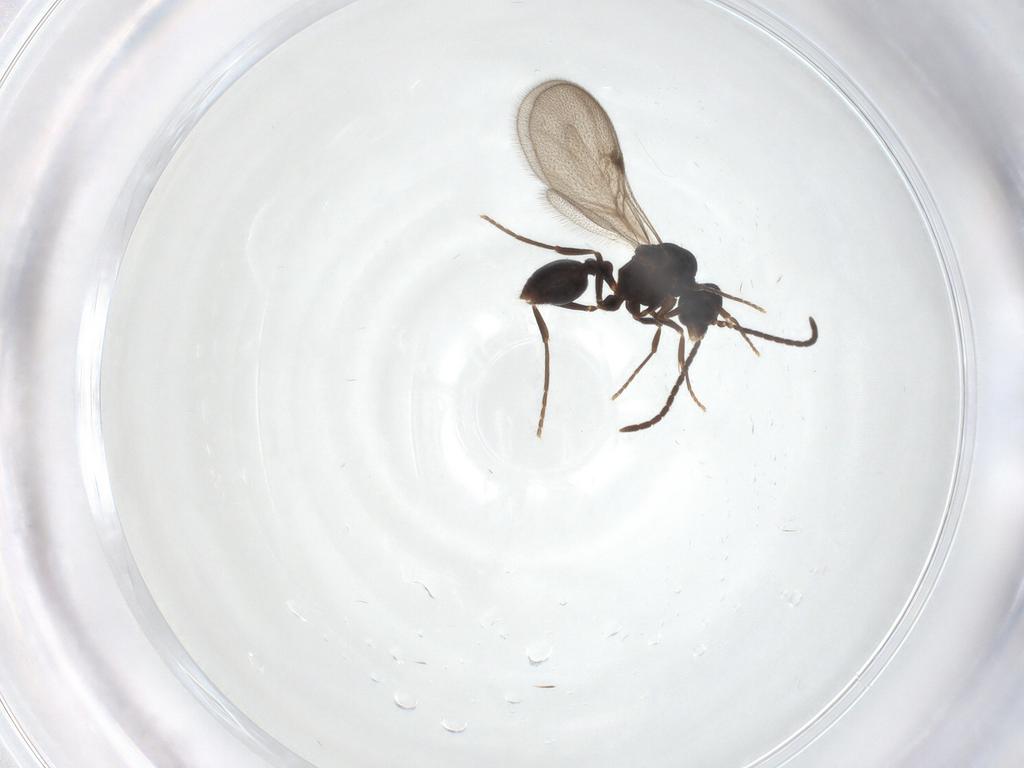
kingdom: Animalia
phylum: Arthropoda
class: Insecta
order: Hymenoptera
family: Formicidae
